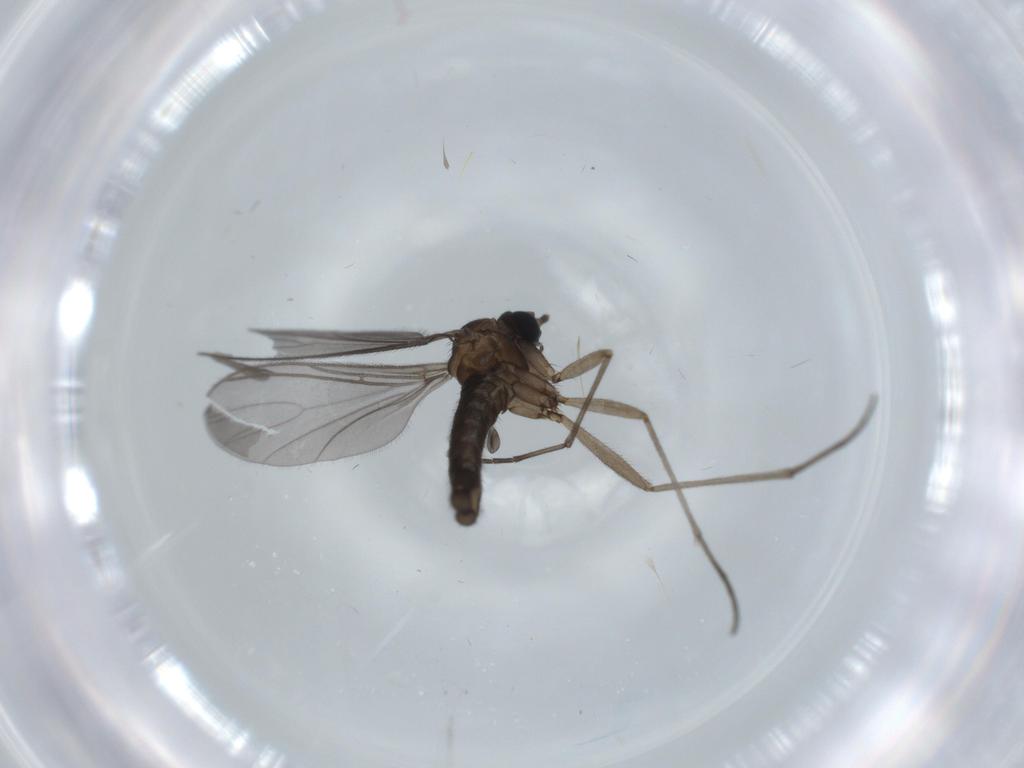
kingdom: Animalia
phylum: Arthropoda
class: Insecta
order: Diptera
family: Sciaridae
